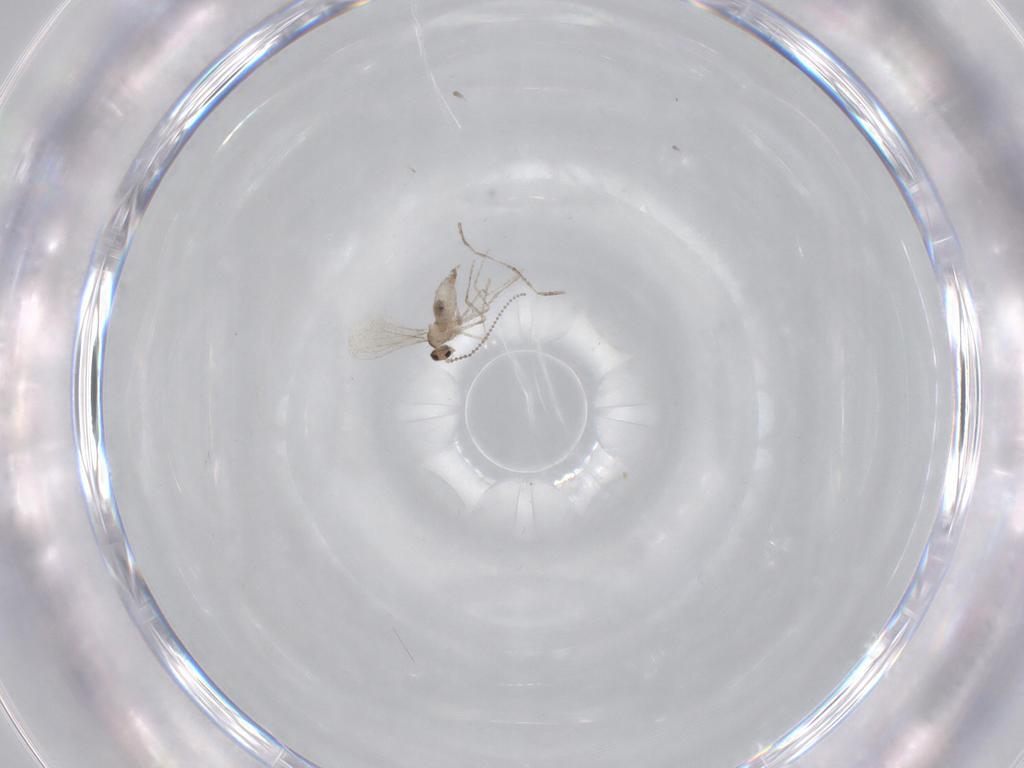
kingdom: Animalia
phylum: Arthropoda
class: Insecta
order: Diptera
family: Cecidomyiidae
